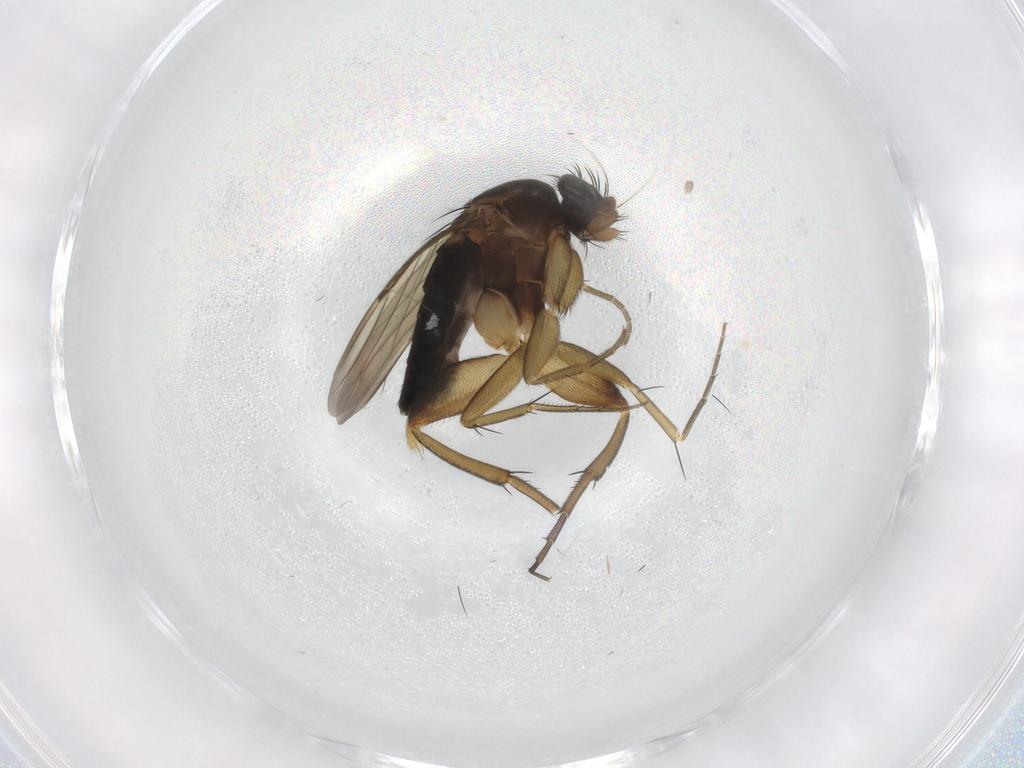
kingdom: Animalia
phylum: Arthropoda
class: Insecta
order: Diptera
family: Phoridae
